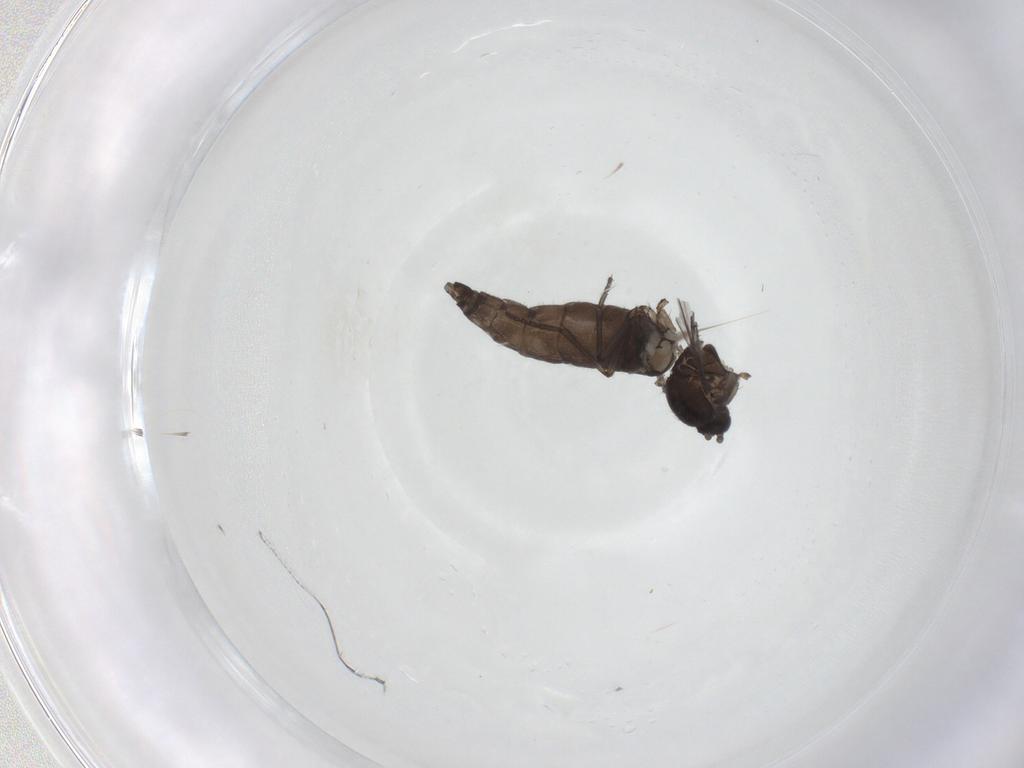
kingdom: Animalia
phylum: Arthropoda
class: Insecta
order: Diptera
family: Sciaridae
